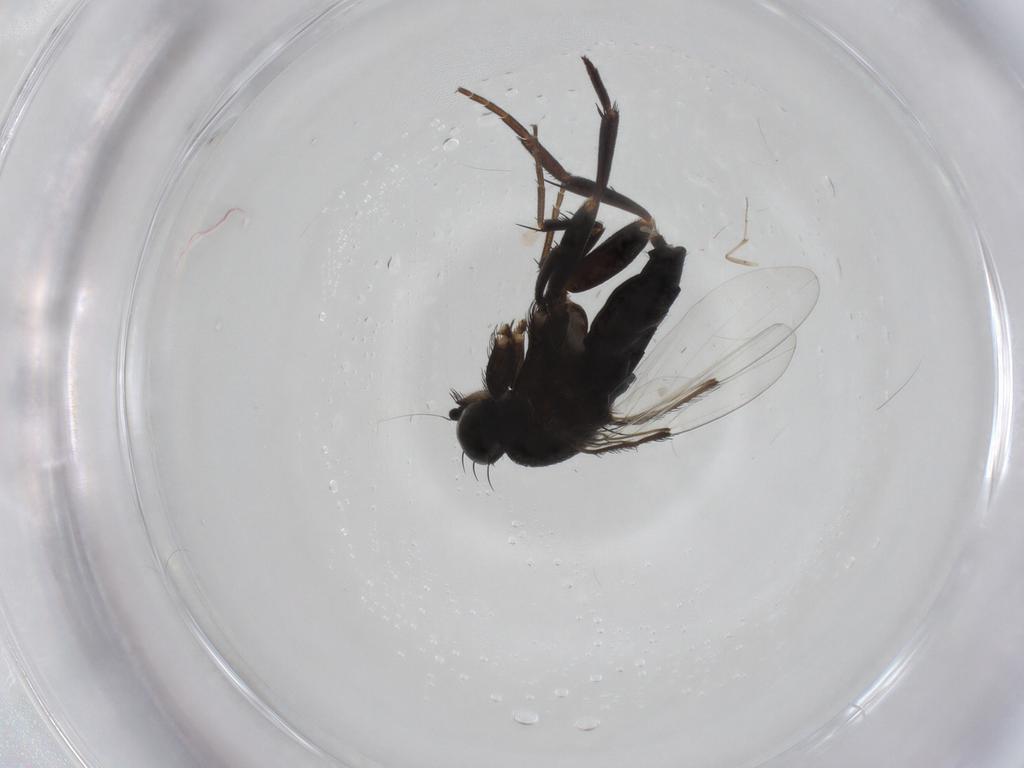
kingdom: Animalia
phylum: Arthropoda
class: Insecta
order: Diptera
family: Phoridae
